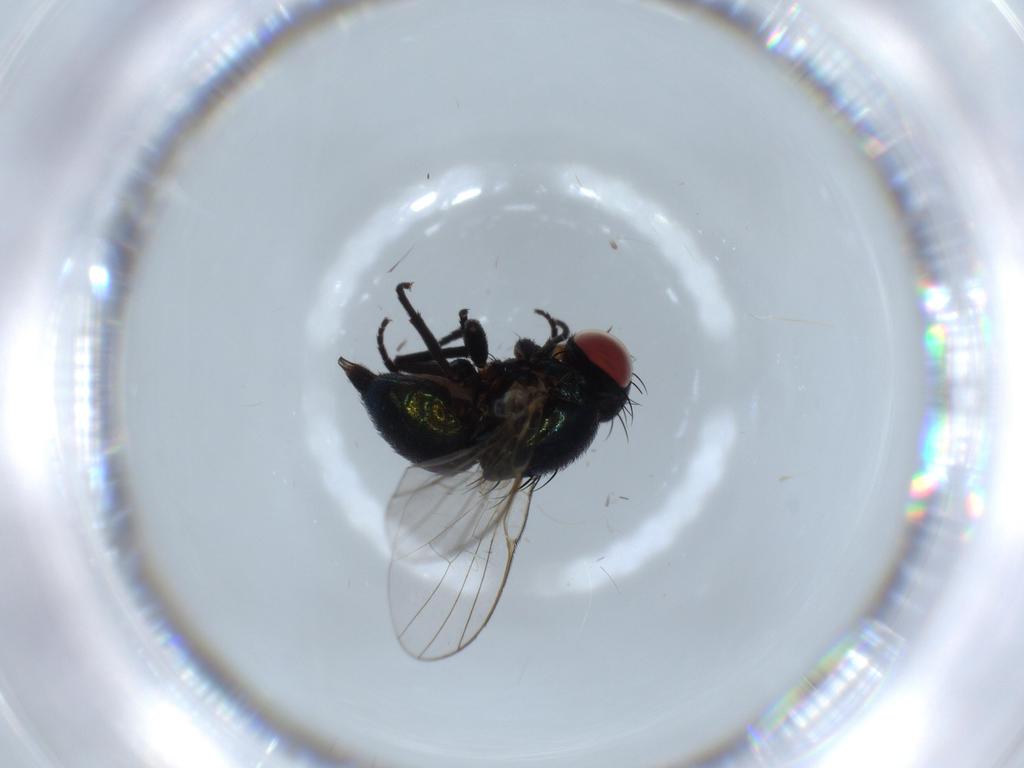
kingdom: Animalia
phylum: Arthropoda
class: Insecta
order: Diptera
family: Agromyzidae
